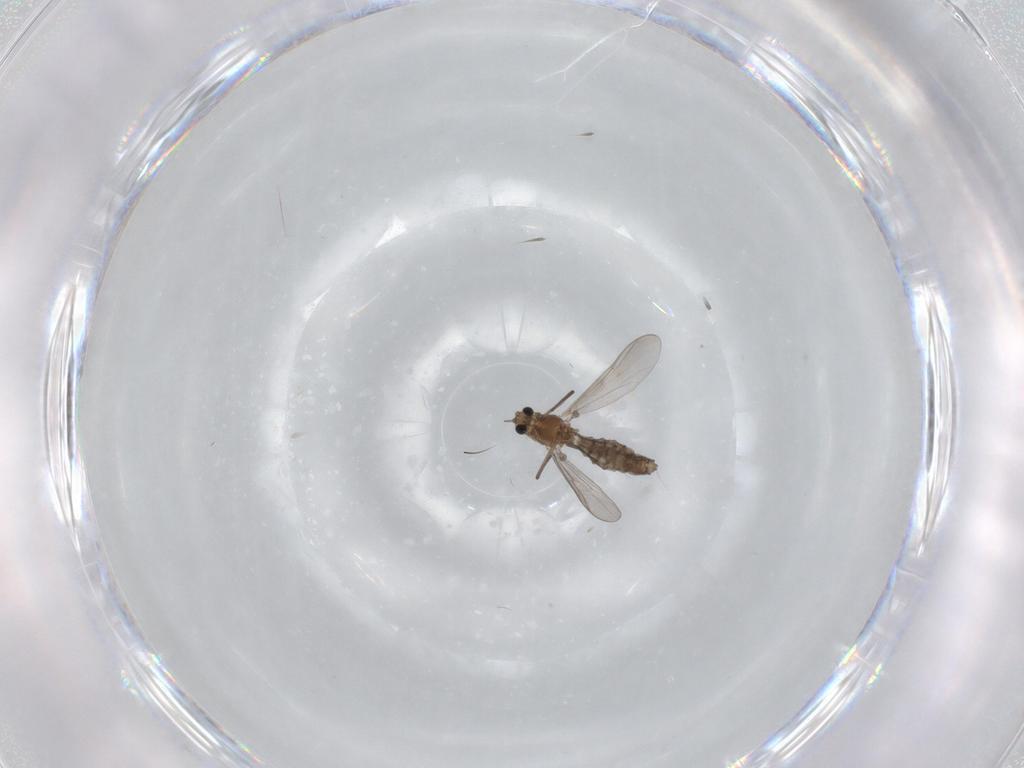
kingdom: Animalia
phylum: Arthropoda
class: Insecta
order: Diptera
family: Chironomidae
